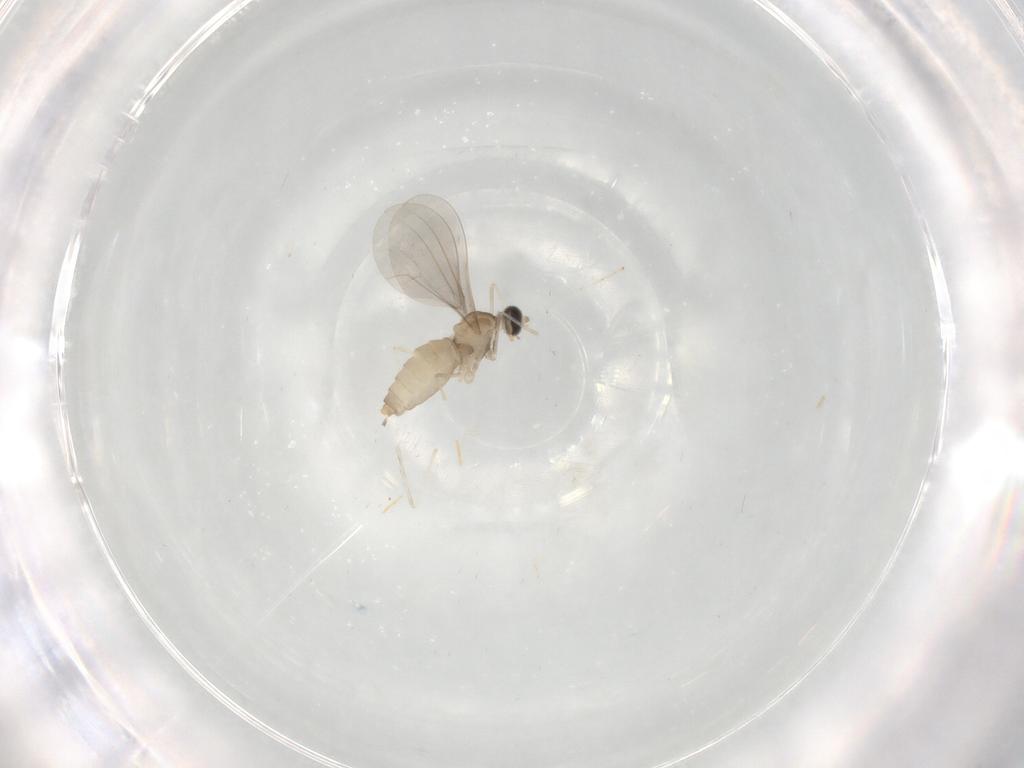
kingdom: Animalia
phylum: Arthropoda
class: Insecta
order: Diptera
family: Cecidomyiidae
